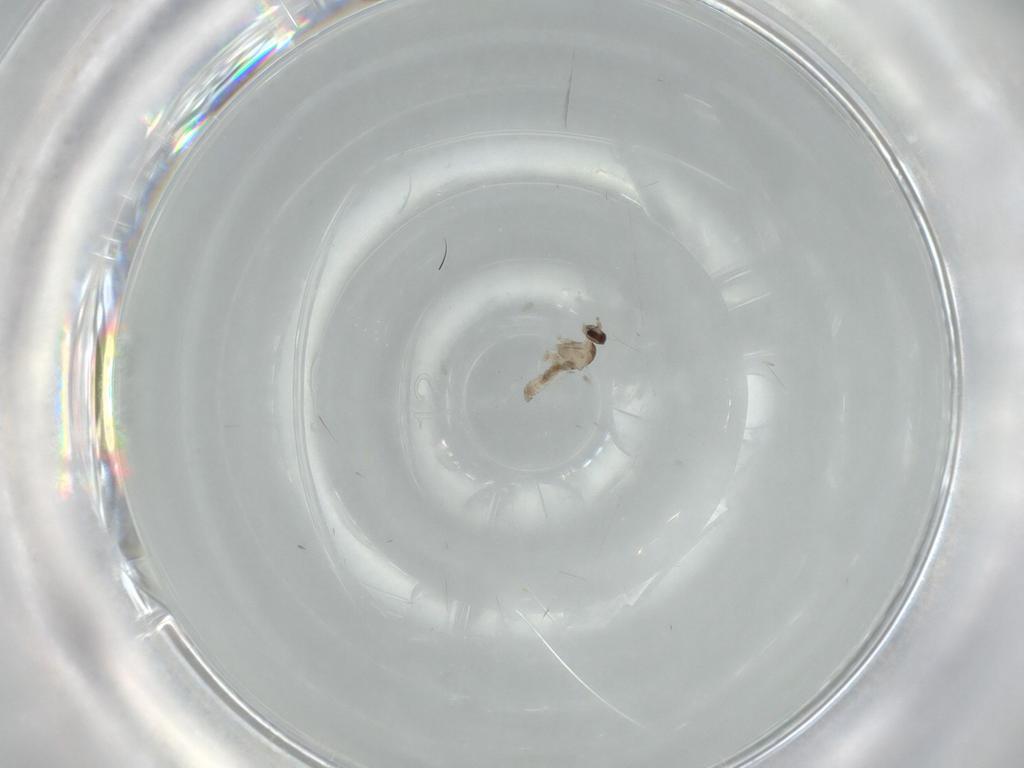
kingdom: Animalia
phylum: Arthropoda
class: Insecta
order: Diptera
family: Cecidomyiidae
